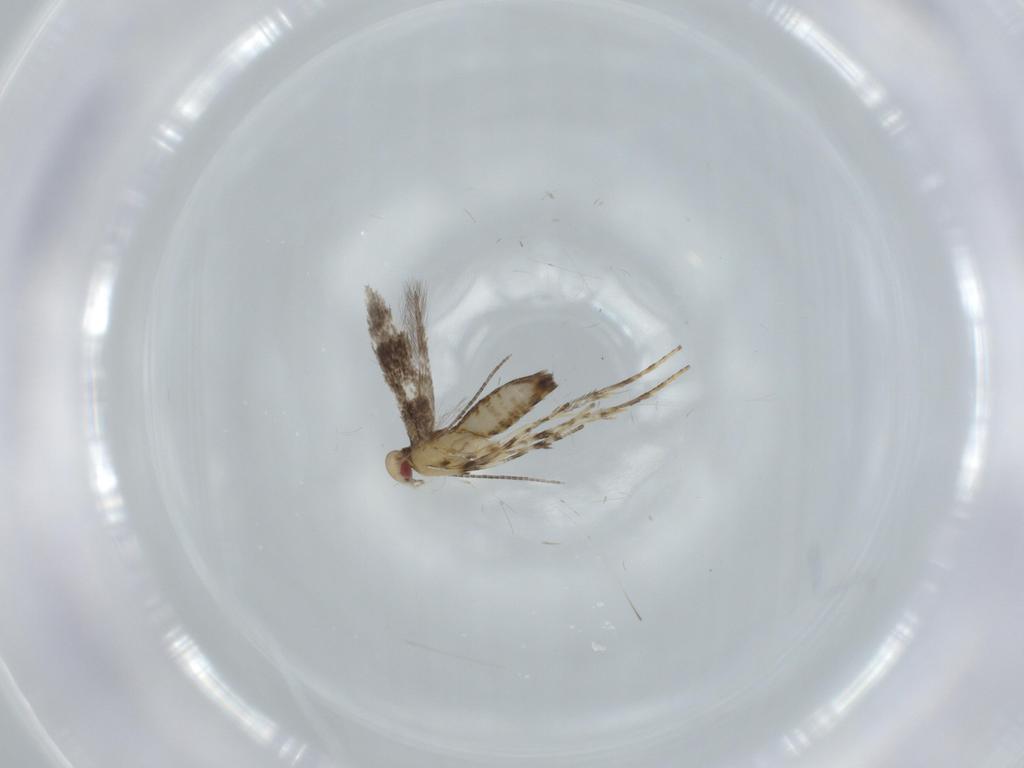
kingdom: Animalia
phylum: Arthropoda
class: Insecta
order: Lepidoptera
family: Gracillariidae
